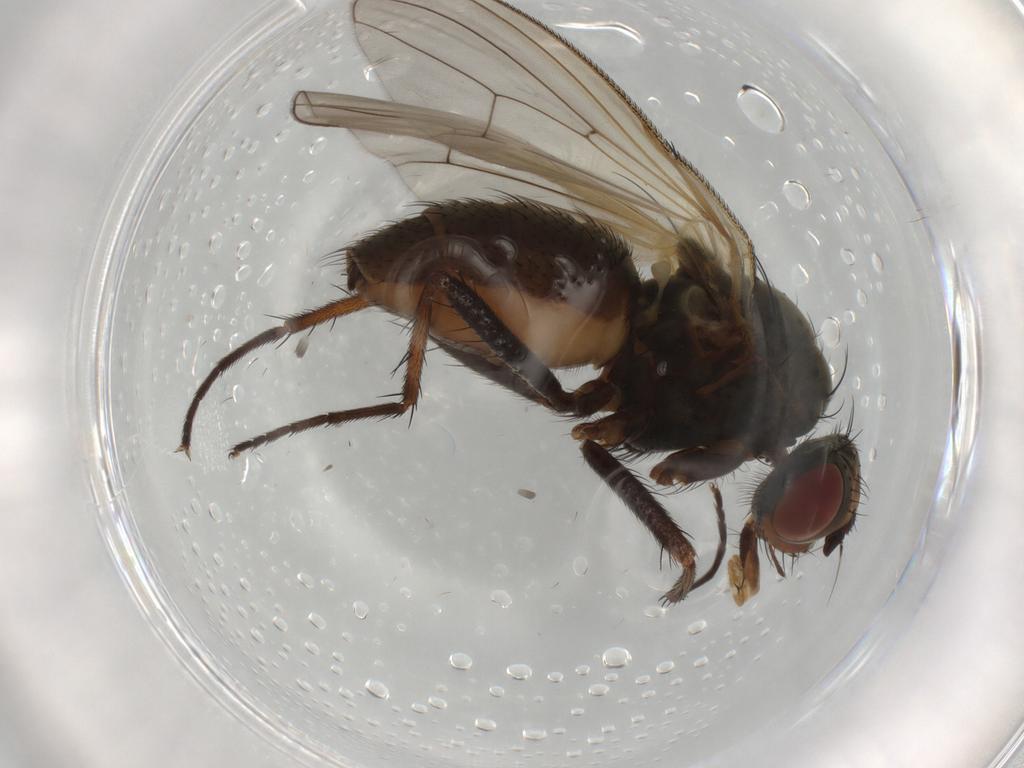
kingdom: Animalia
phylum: Arthropoda
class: Insecta
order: Diptera
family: Anthomyiidae
